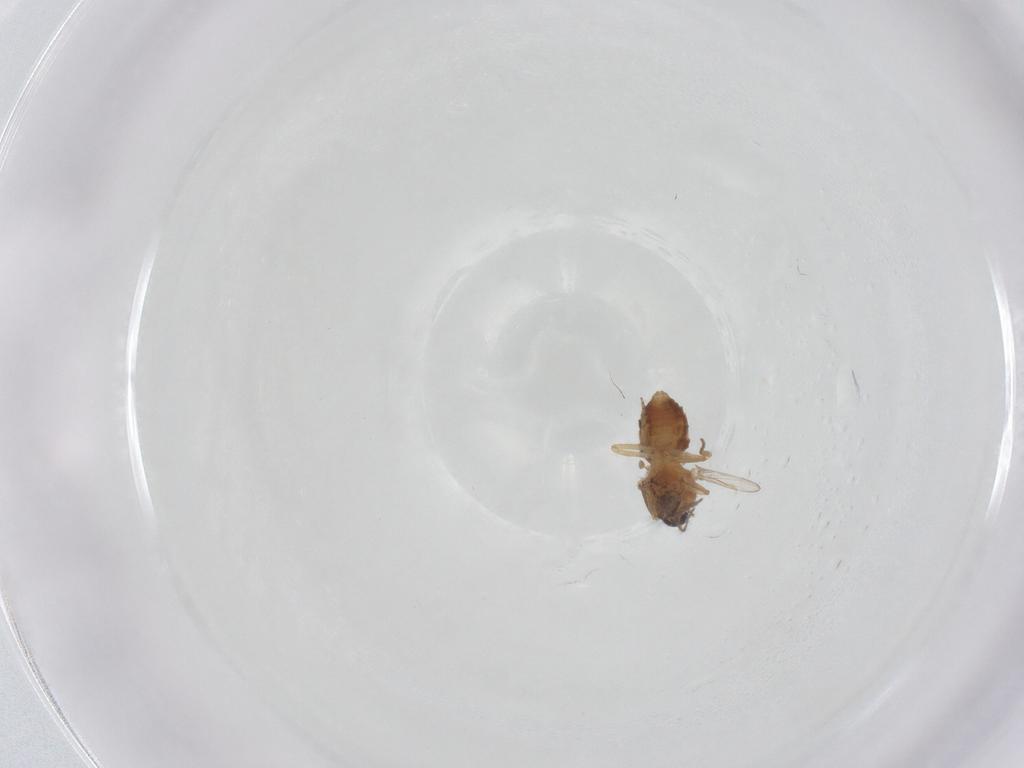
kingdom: Animalia
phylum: Arthropoda
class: Insecta
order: Diptera
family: Ceratopogonidae
